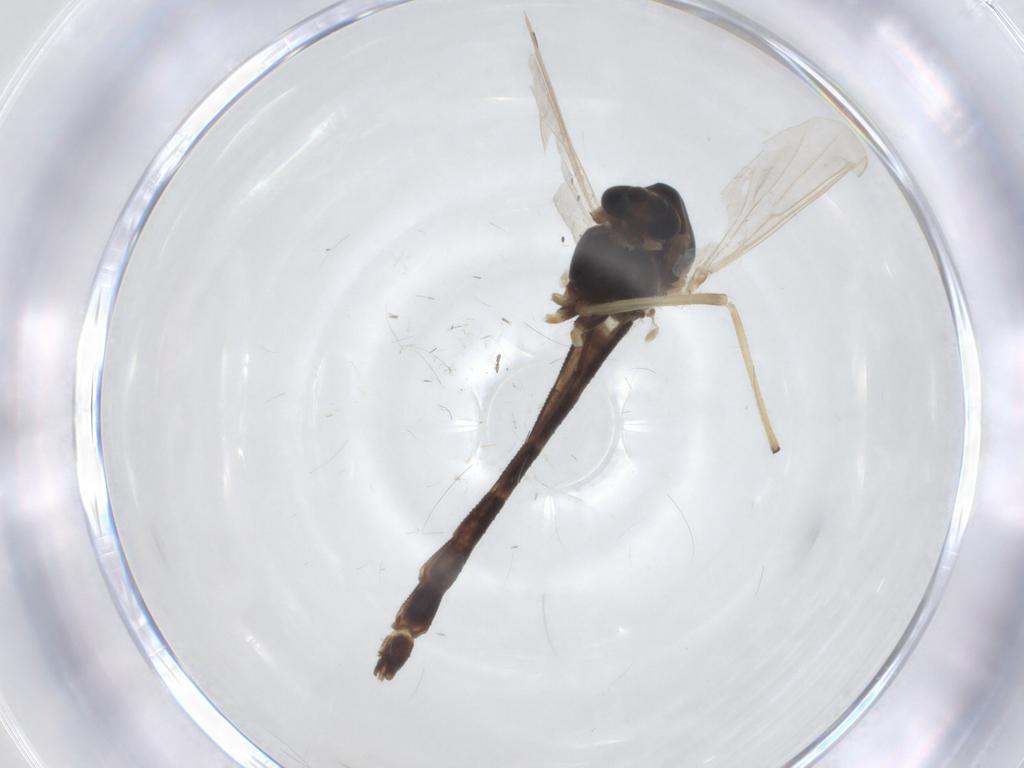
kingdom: Animalia
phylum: Arthropoda
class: Insecta
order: Diptera
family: Chironomidae
